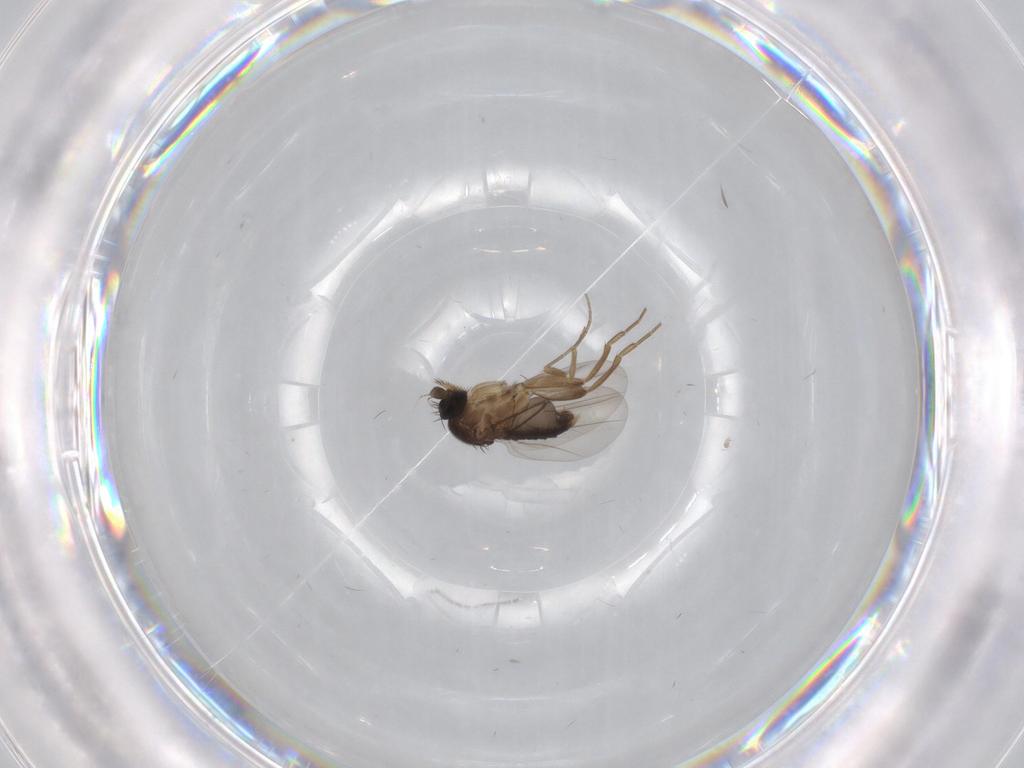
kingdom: Animalia
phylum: Arthropoda
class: Insecta
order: Diptera
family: Phoridae
